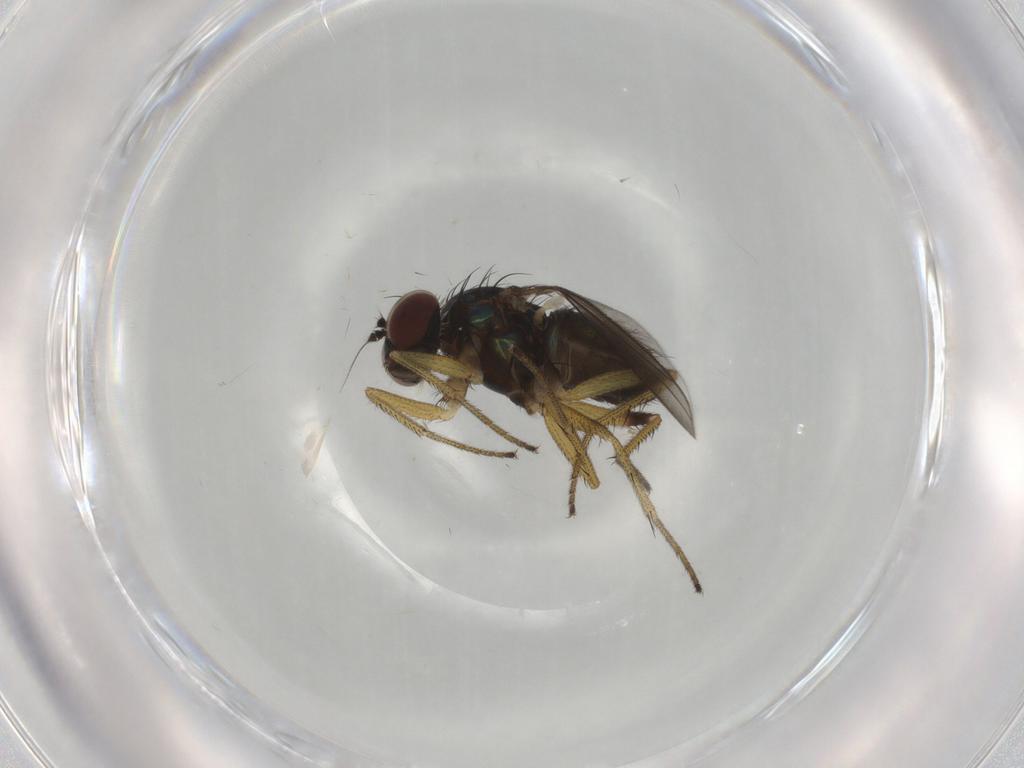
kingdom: Animalia
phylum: Arthropoda
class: Insecta
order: Diptera
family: Dolichopodidae
